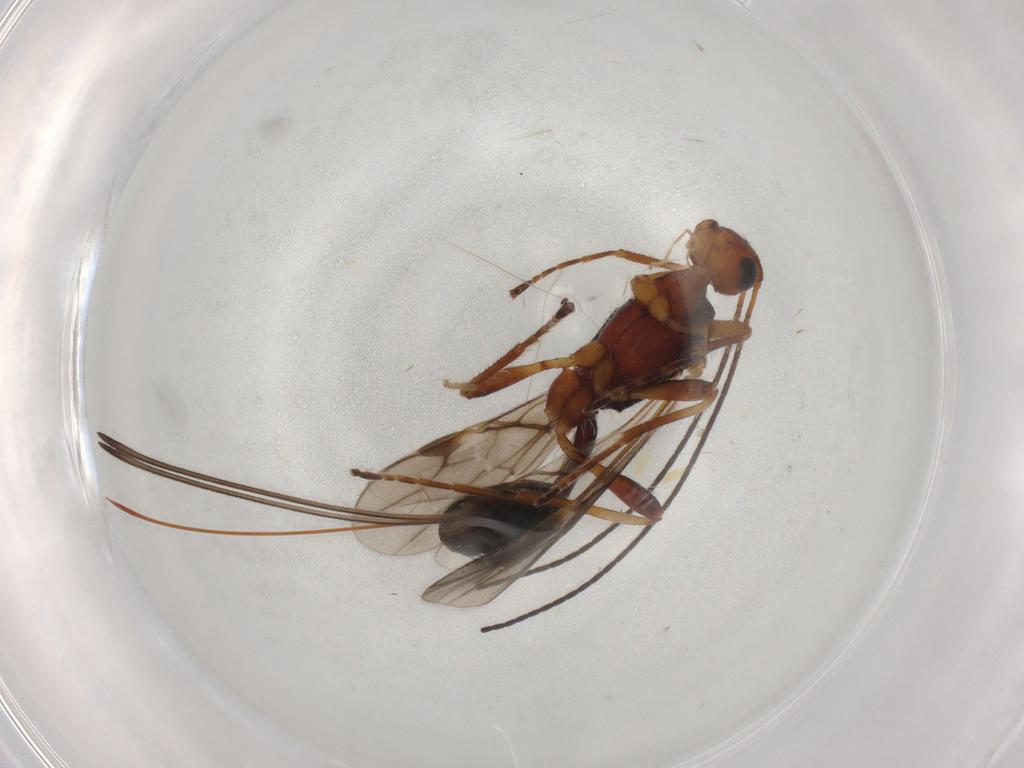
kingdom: Animalia
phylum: Arthropoda
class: Insecta
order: Hymenoptera
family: Braconidae
